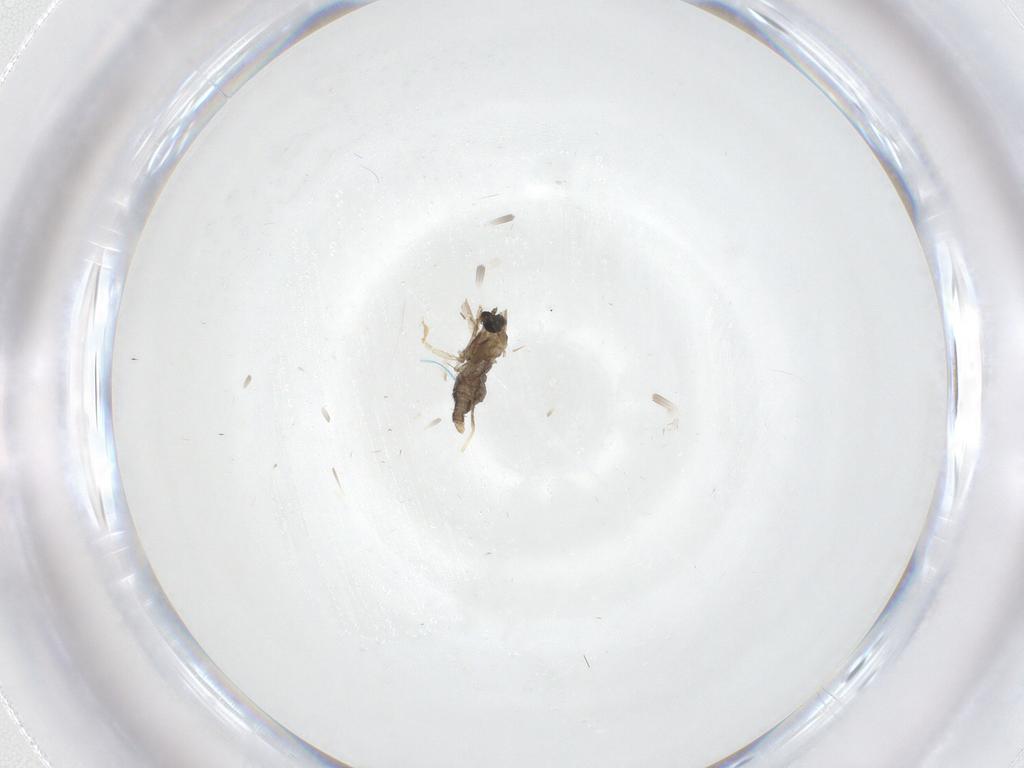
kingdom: Animalia
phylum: Arthropoda
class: Insecta
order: Diptera
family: Cecidomyiidae
